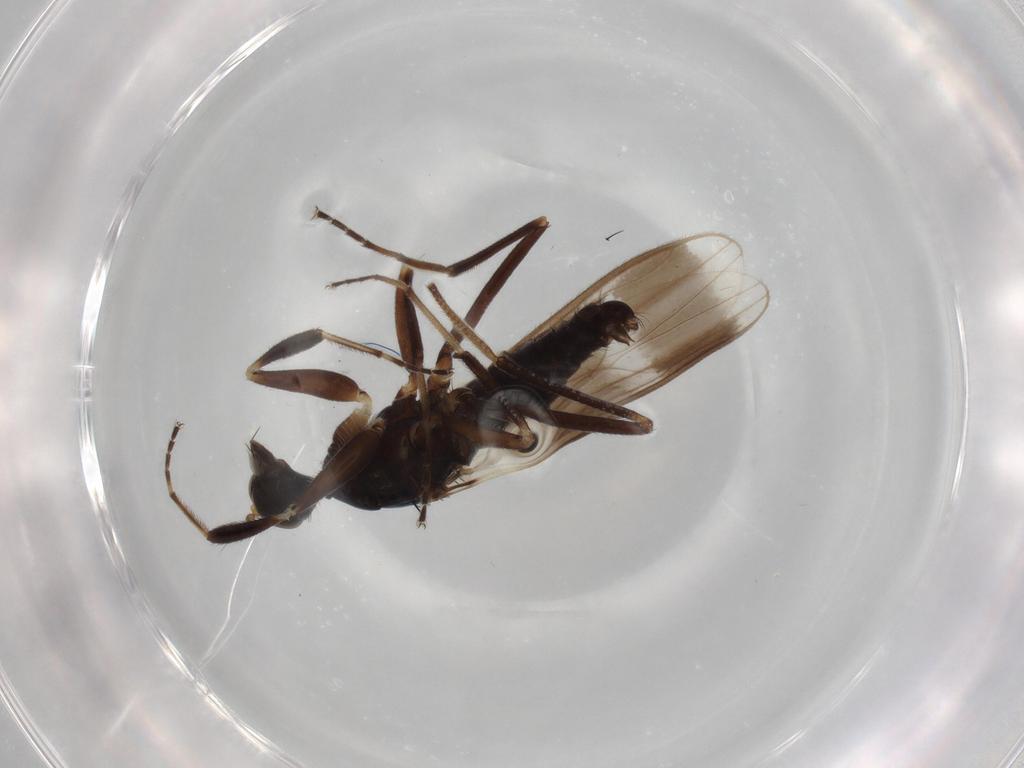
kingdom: Animalia
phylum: Arthropoda
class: Insecta
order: Diptera
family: Hybotidae
